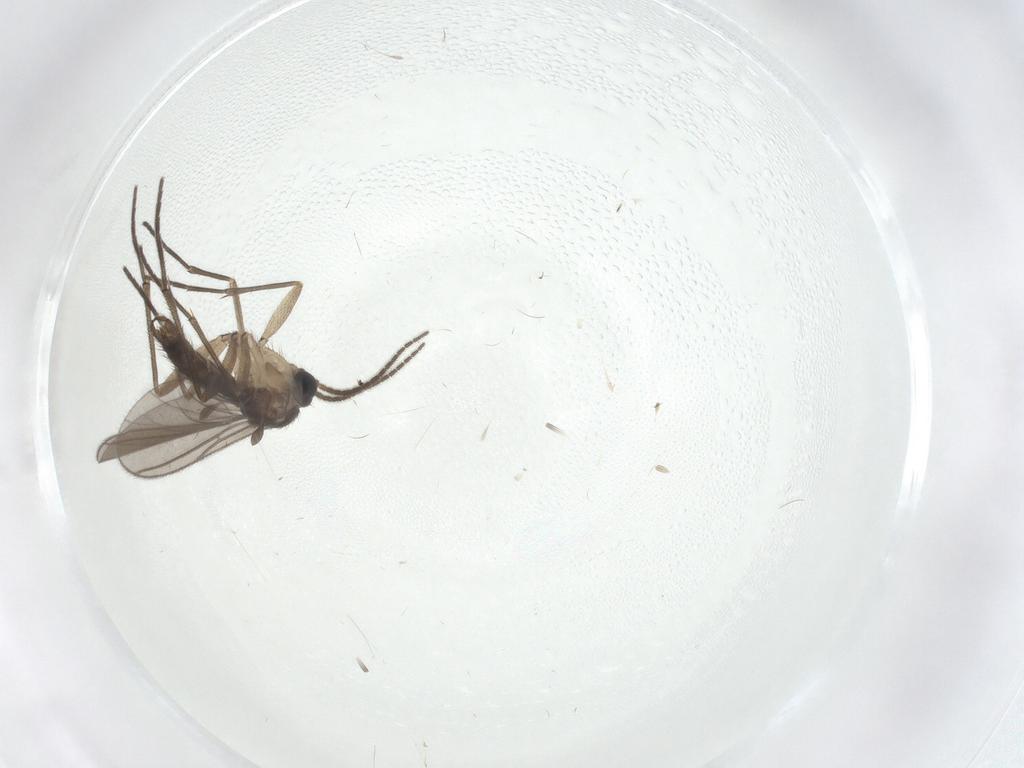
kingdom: Animalia
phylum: Arthropoda
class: Insecta
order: Diptera
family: Sciaridae
